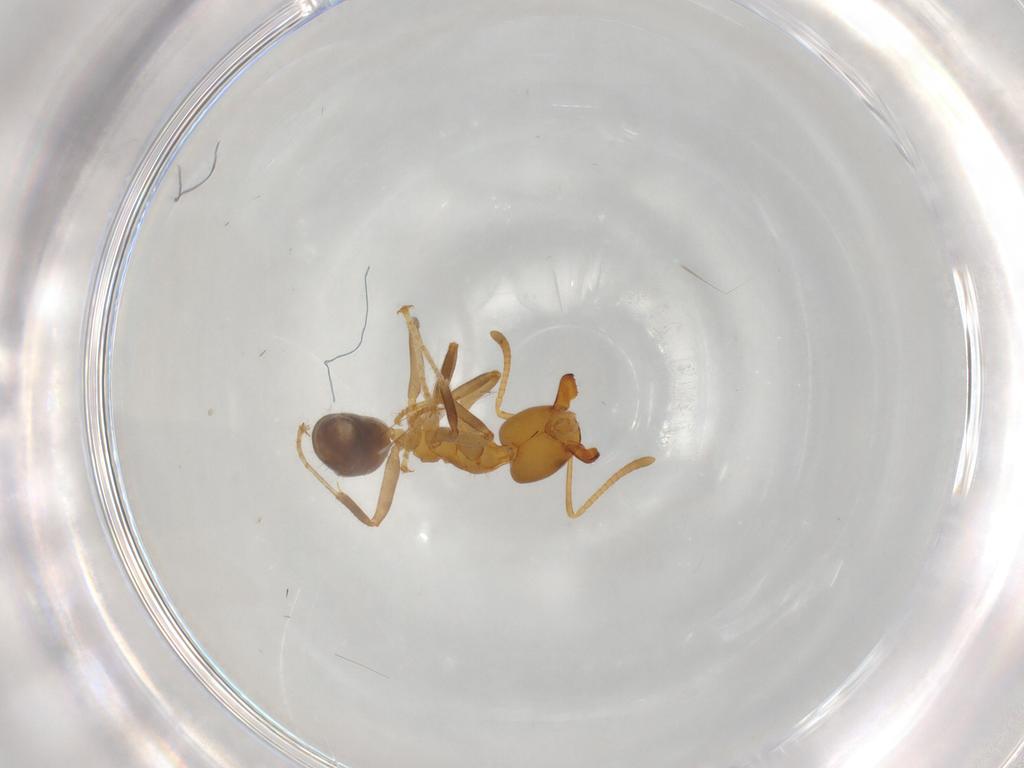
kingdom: Animalia
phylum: Arthropoda
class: Insecta
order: Hymenoptera
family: Formicidae
